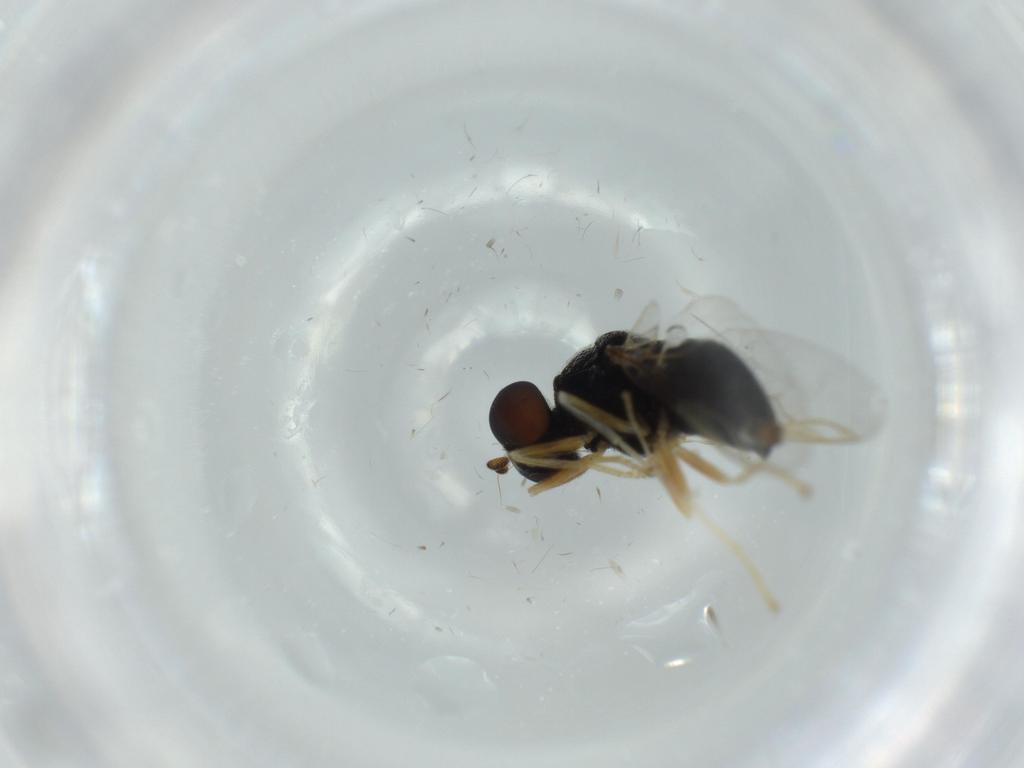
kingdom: Animalia
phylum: Arthropoda
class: Insecta
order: Diptera
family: Stratiomyidae
